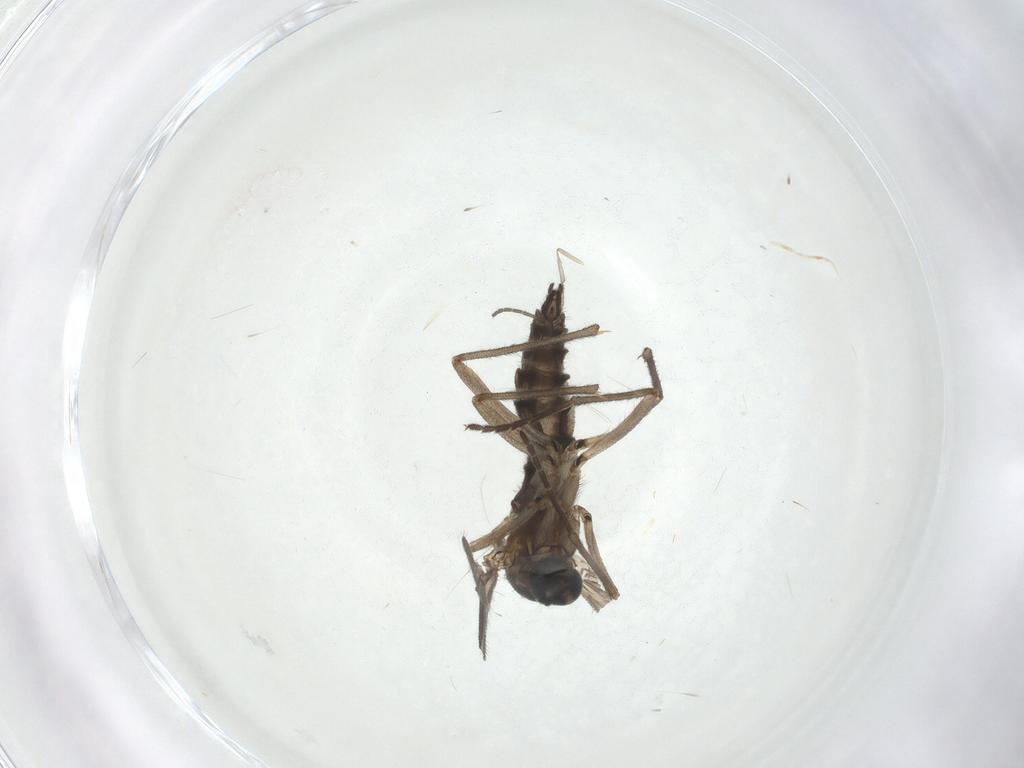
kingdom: Animalia
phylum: Arthropoda
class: Insecta
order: Diptera
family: Sciaridae
